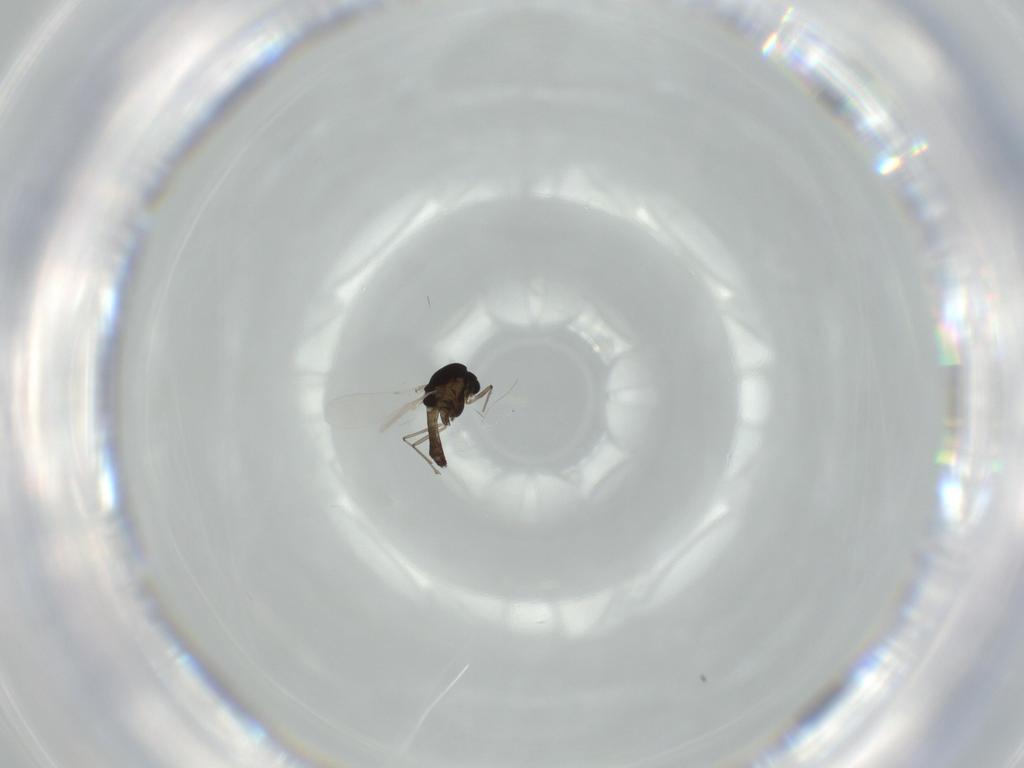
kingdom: Animalia
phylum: Arthropoda
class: Insecta
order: Diptera
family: Chironomidae
